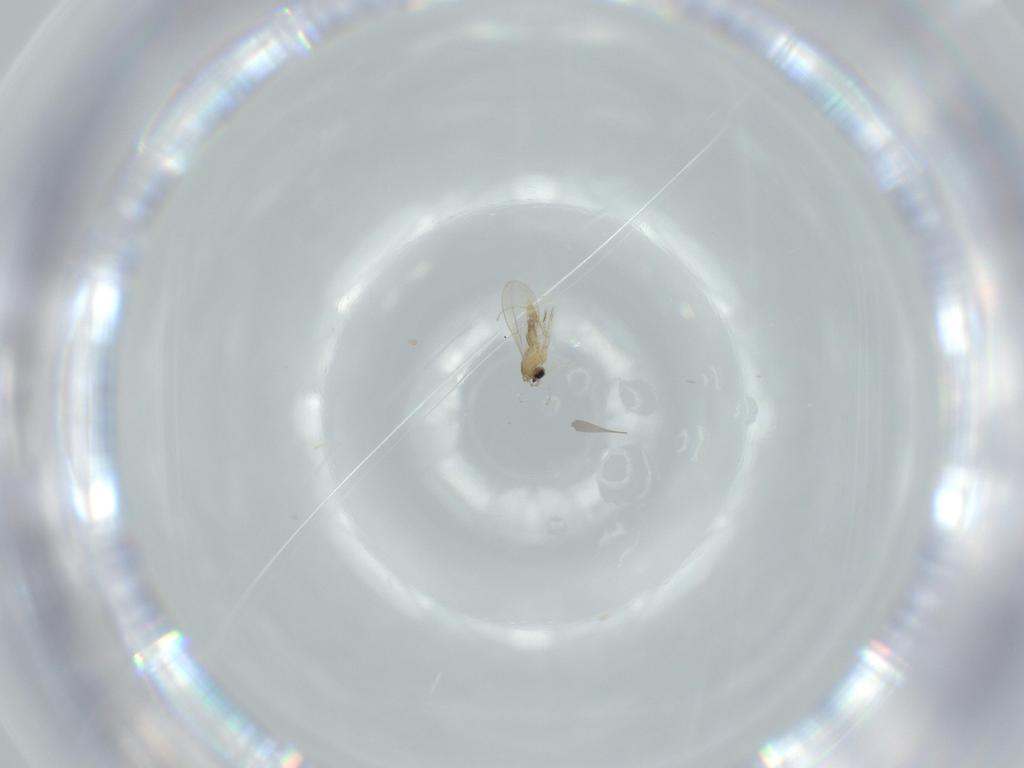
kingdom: Animalia
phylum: Arthropoda
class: Insecta
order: Diptera
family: Cecidomyiidae
